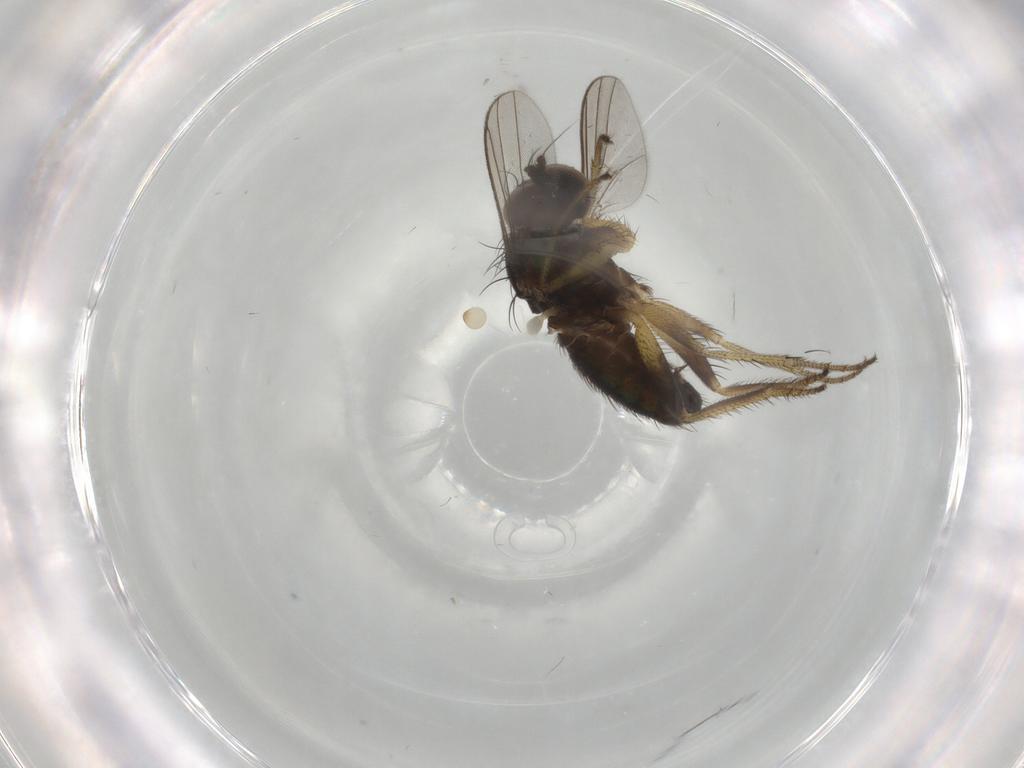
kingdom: Animalia
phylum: Arthropoda
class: Insecta
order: Diptera
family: Dolichopodidae
